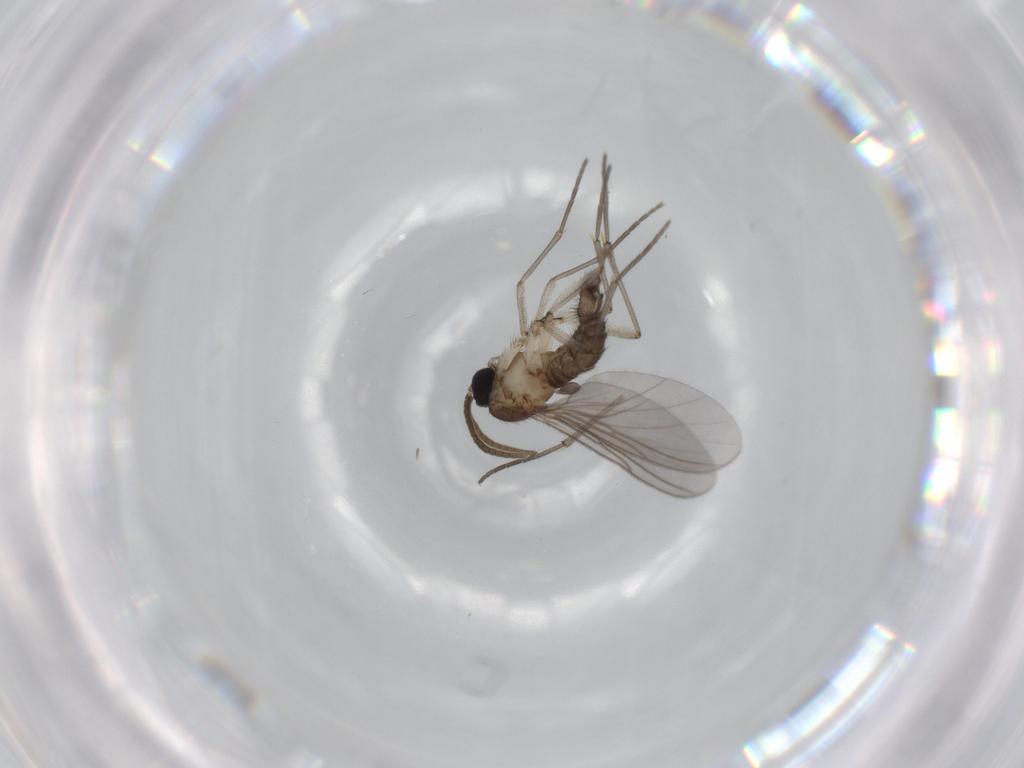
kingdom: Animalia
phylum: Arthropoda
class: Insecta
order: Diptera
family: Sciaridae
